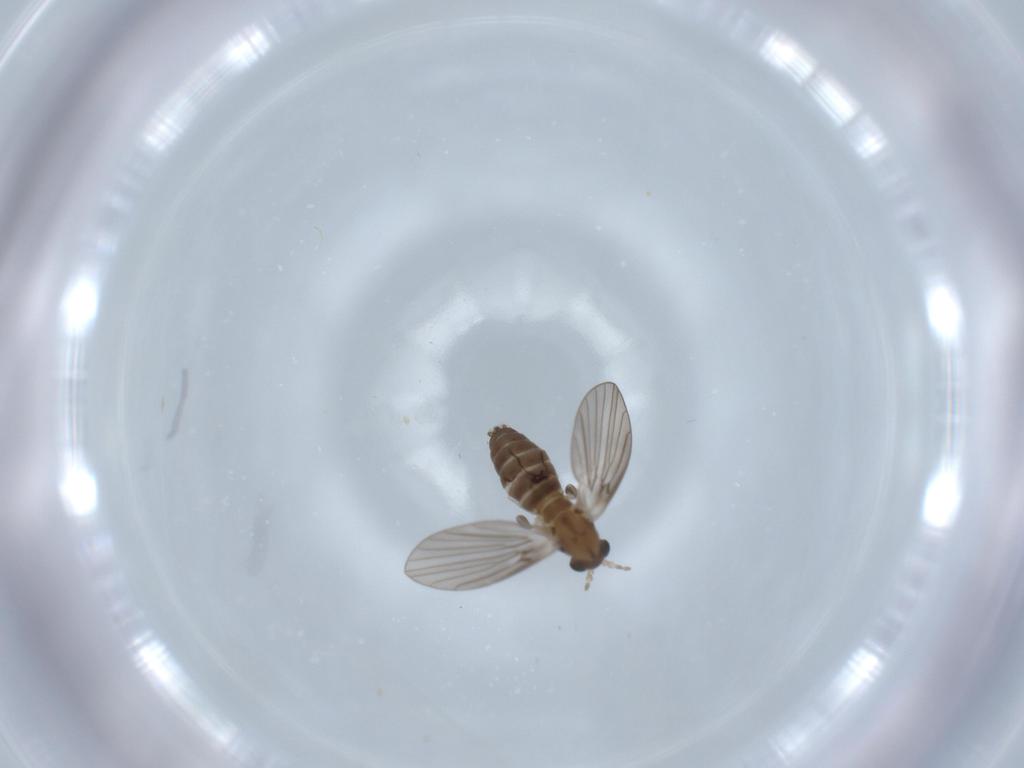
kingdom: Animalia
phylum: Arthropoda
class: Insecta
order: Diptera
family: Psychodidae
